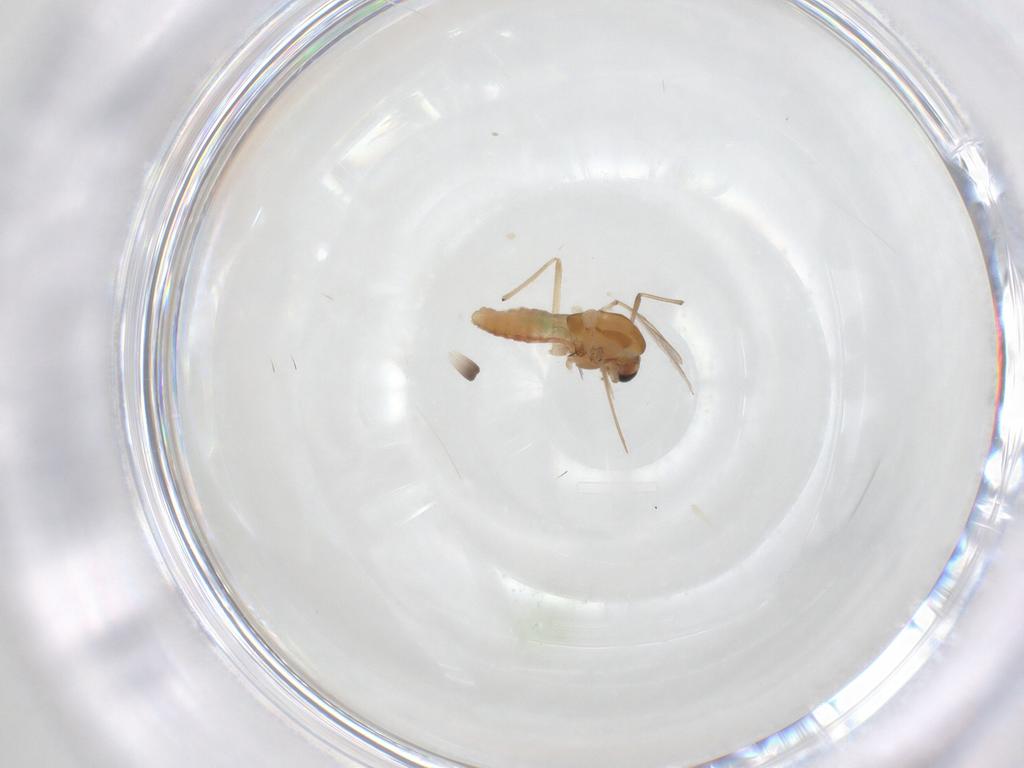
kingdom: Animalia
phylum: Arthropoda
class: Insecta
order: Diptera
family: Chironomidae
